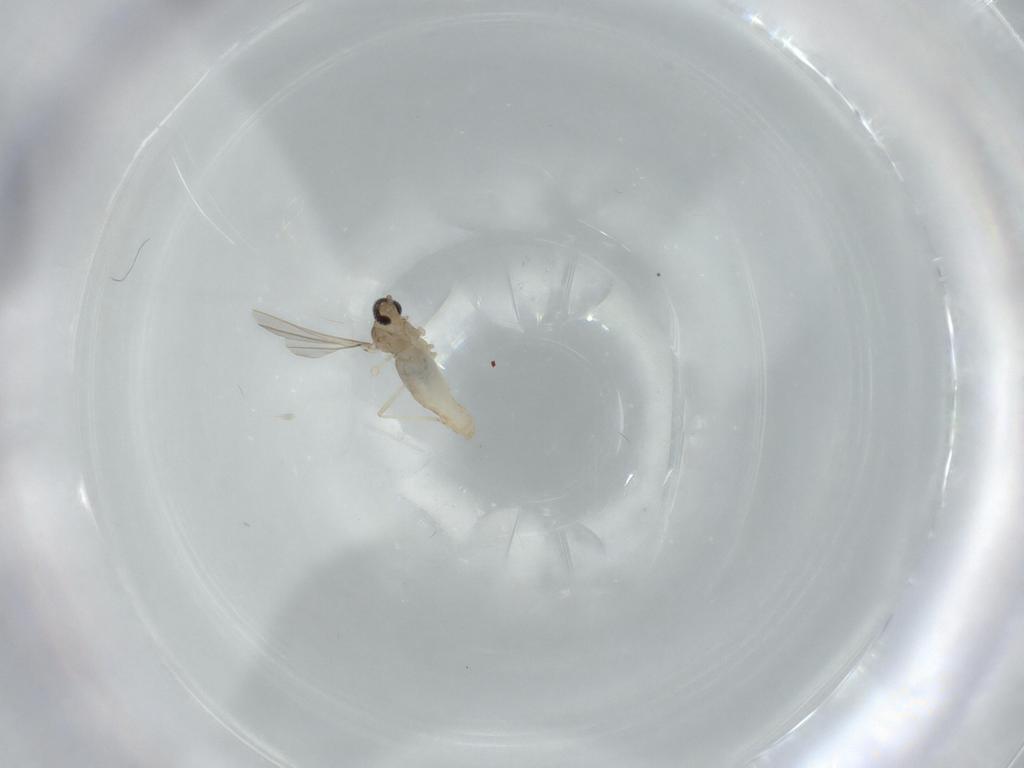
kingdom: Animalia
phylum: Arthropoda
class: Insecta
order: Diptera
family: Cecidomyiidae
